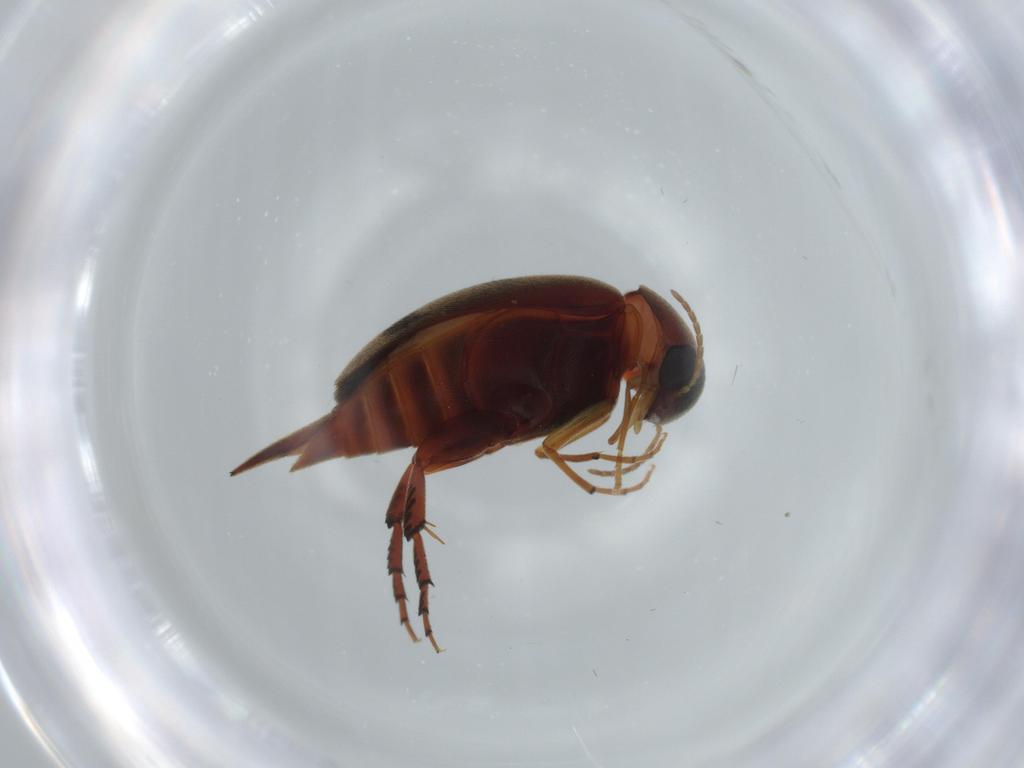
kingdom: Animalia
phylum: Arthropoda
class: Insecta
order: Coleoptera
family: Mordellidae
